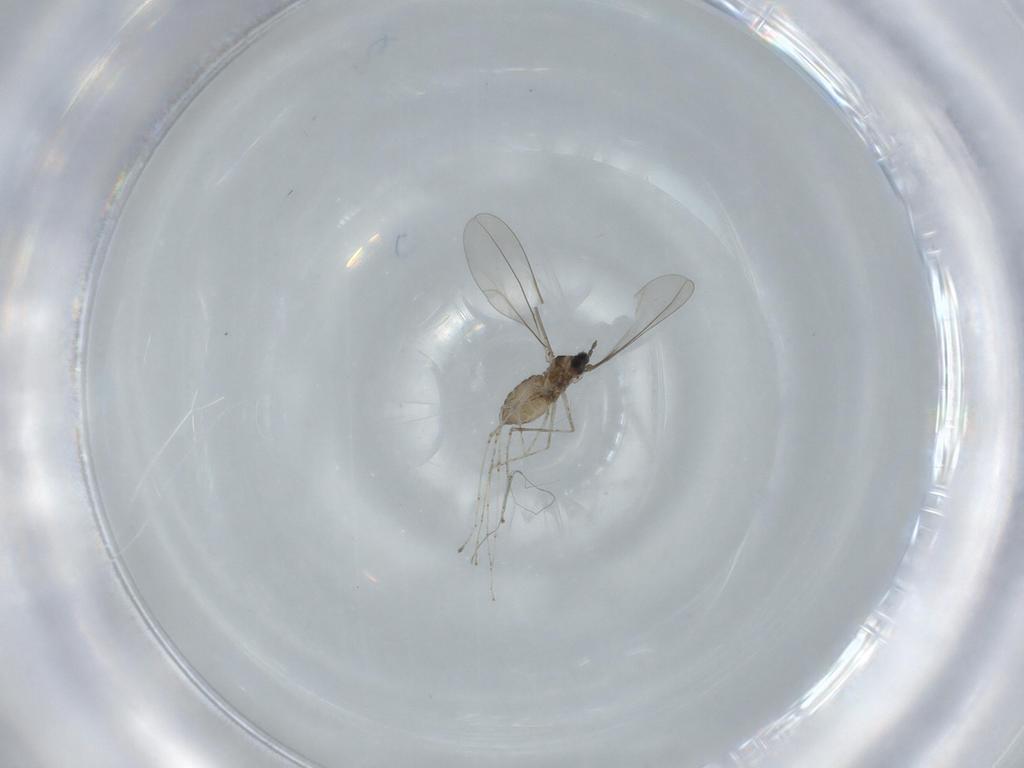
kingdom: Animalia
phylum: Arthropoda
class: Insecta
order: Diptera
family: Cecidomyiidae
